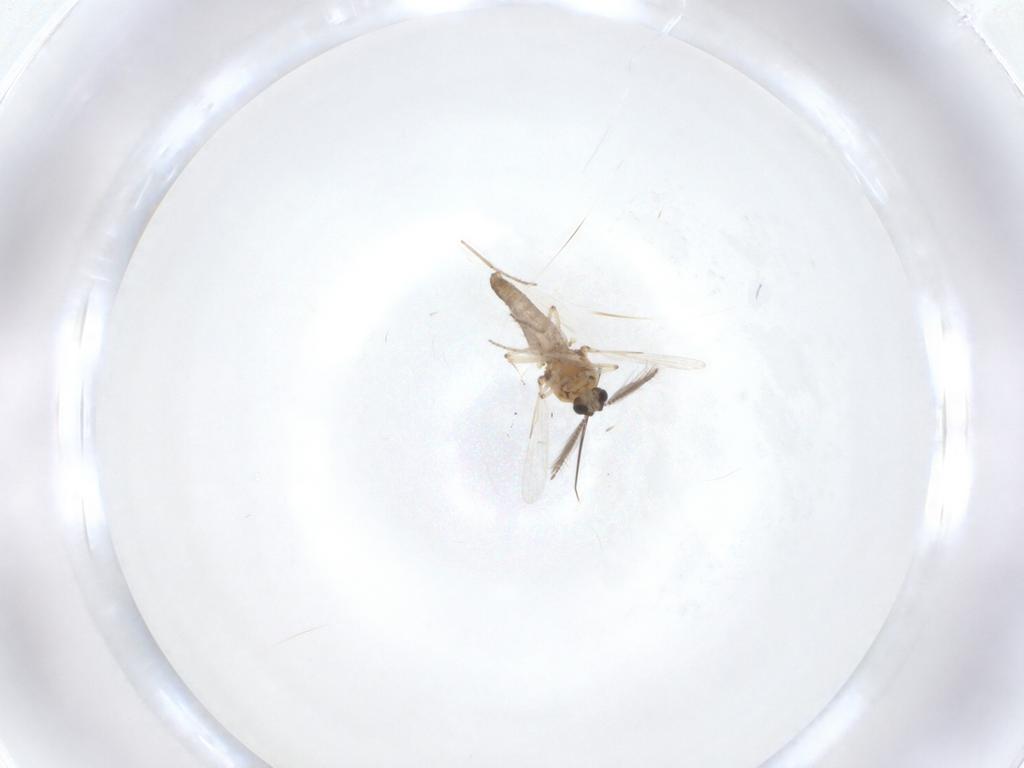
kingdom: Animalia
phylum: Arthropoda
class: Insecta
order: Diptera
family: Ceratopogonidae
